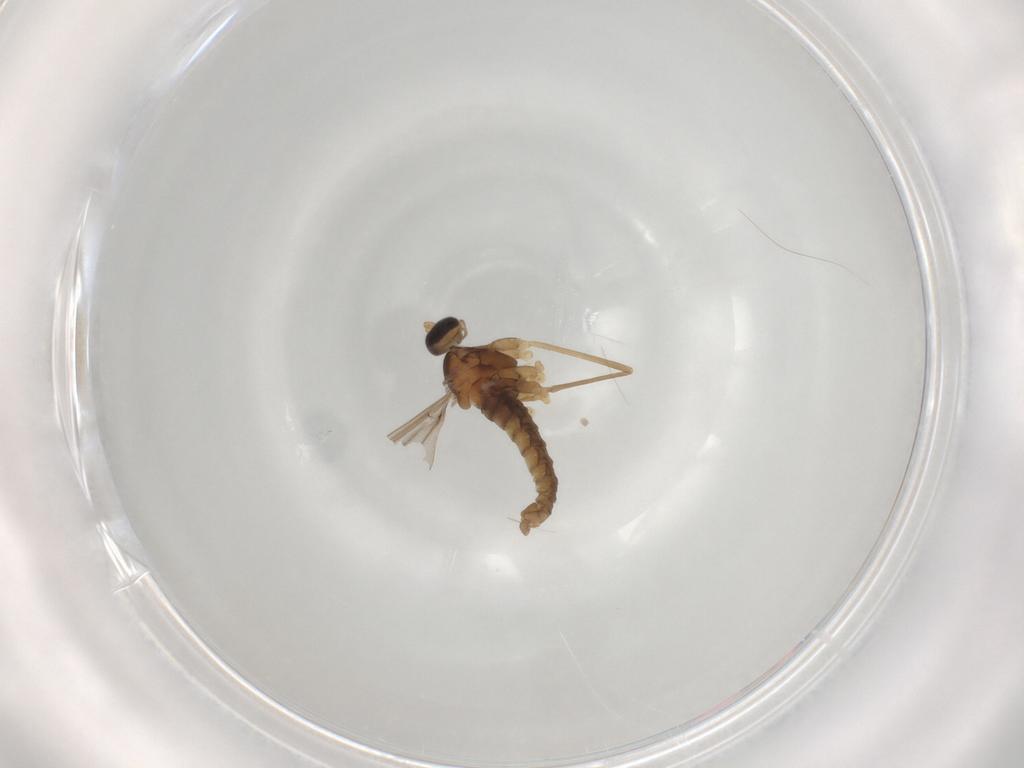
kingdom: Animalia
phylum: Arthropoda
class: Insecta
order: Diptera
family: Cecidomyiidae
